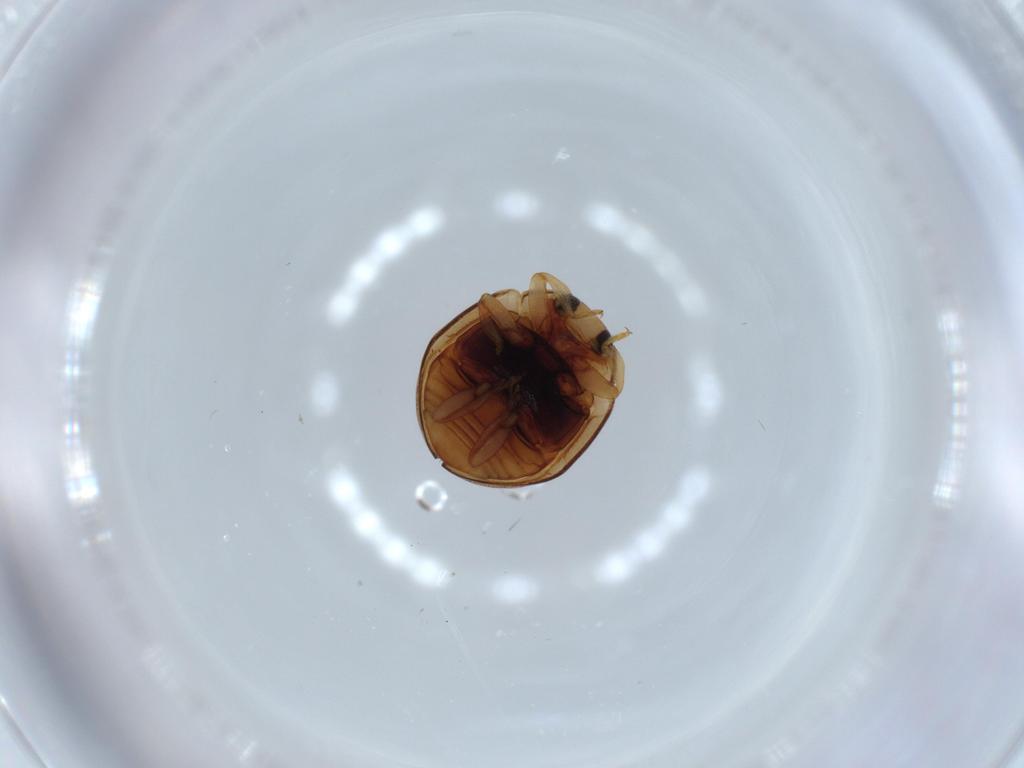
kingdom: Animalia
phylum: Arthropoda
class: Insecta
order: Coleoptera
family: Coccinellidae
